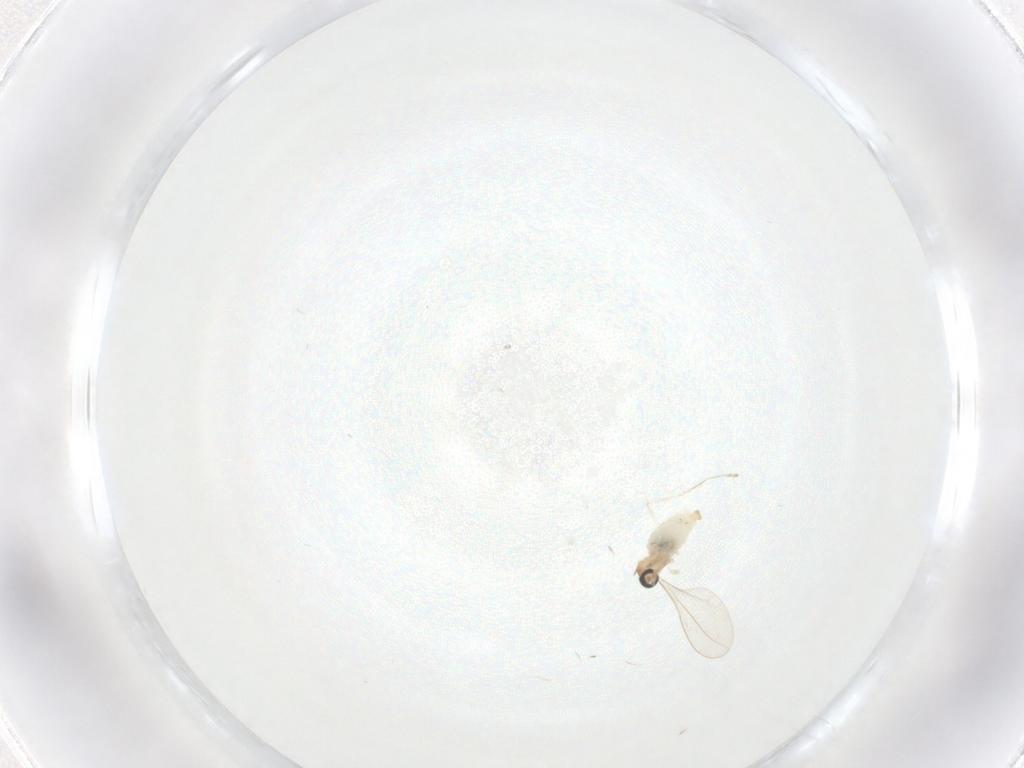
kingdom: Animalia
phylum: Arthropoda
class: Insecta
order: Diptera
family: Cecidomyiidae
